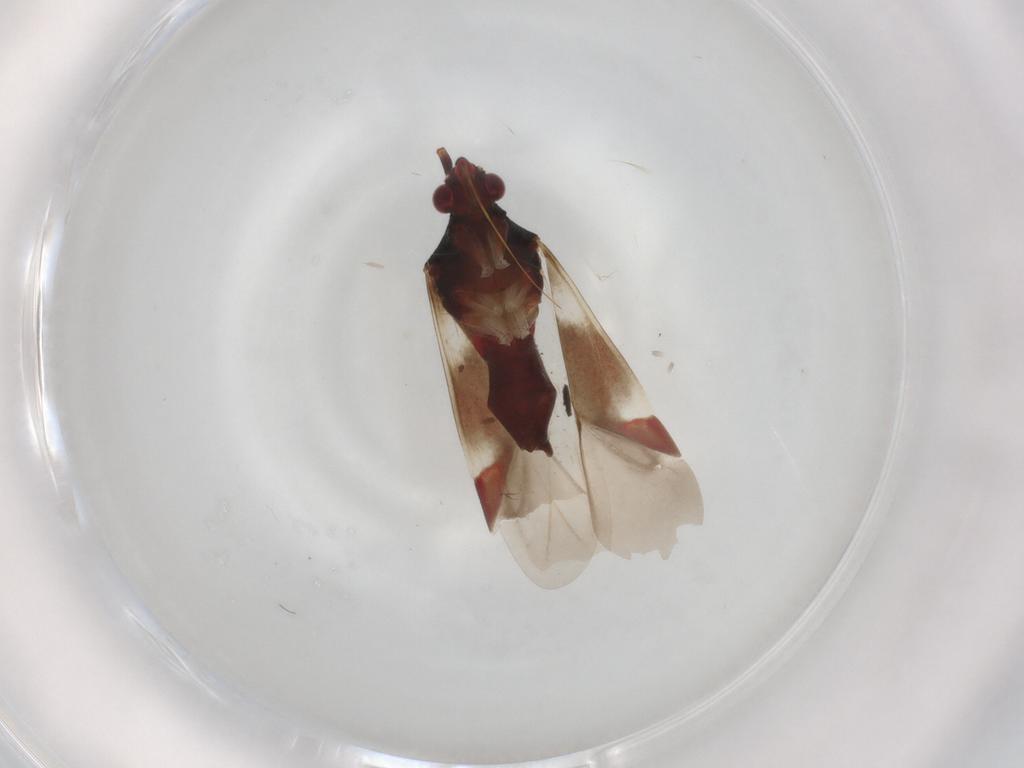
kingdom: Animalia
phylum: Arthropoda
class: Insecta
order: Hemiptera
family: Miridae
